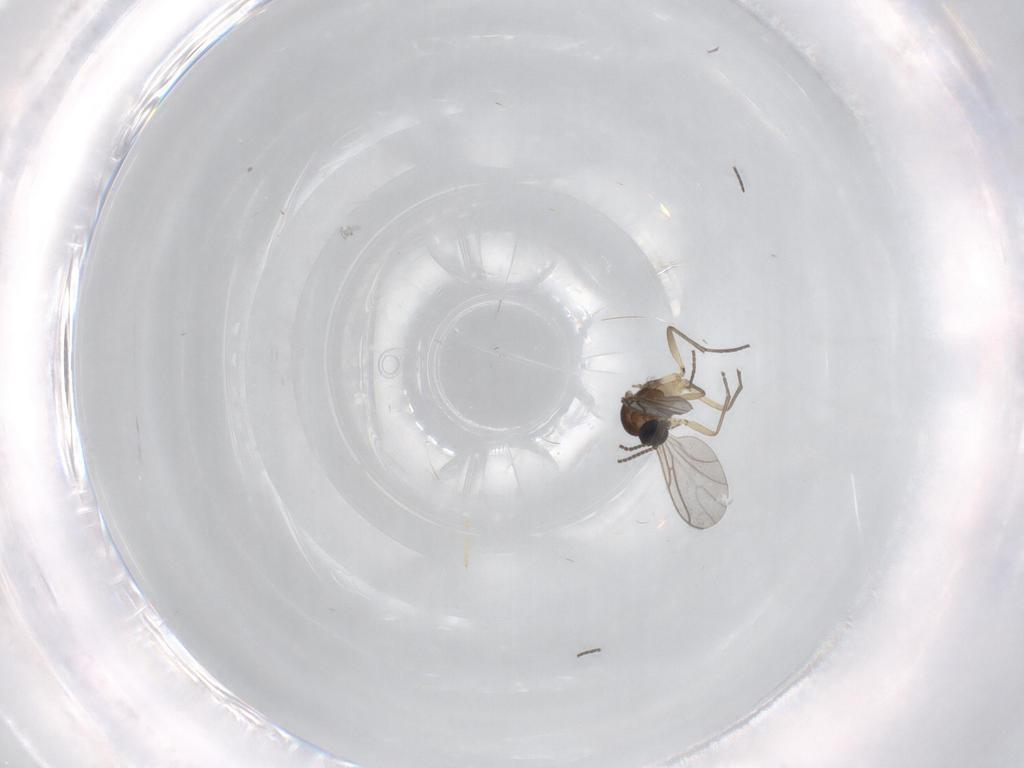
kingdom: Animalia
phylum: Arthropoda
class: Insecta
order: Diptera
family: Sciaridae
